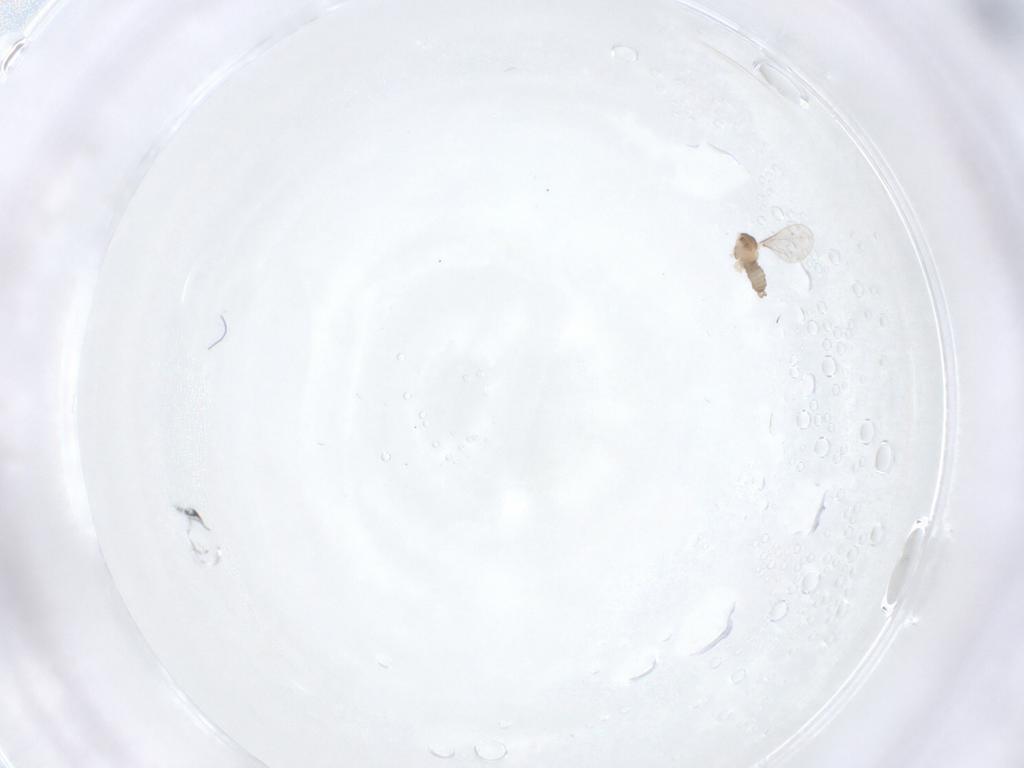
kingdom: Animalia
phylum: Arthropoda
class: Insecta
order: Diptera
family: Cecidomyiidae
